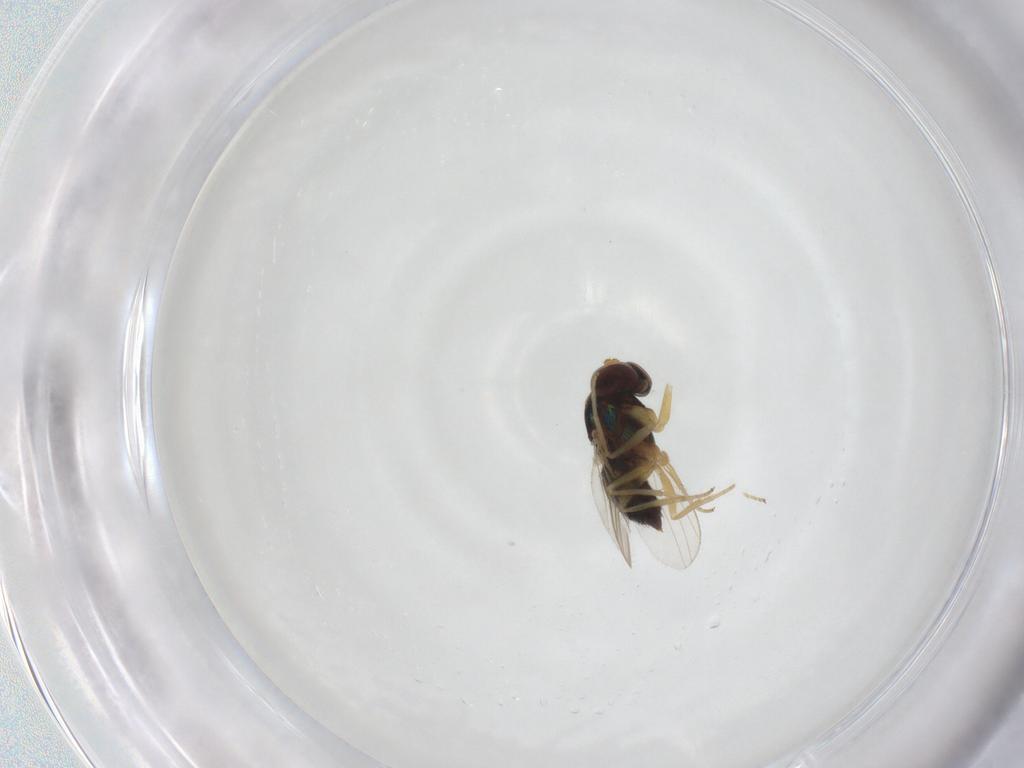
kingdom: Animalia
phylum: Arthropoda
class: Insecta
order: Diptera
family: Dolichopodidae
